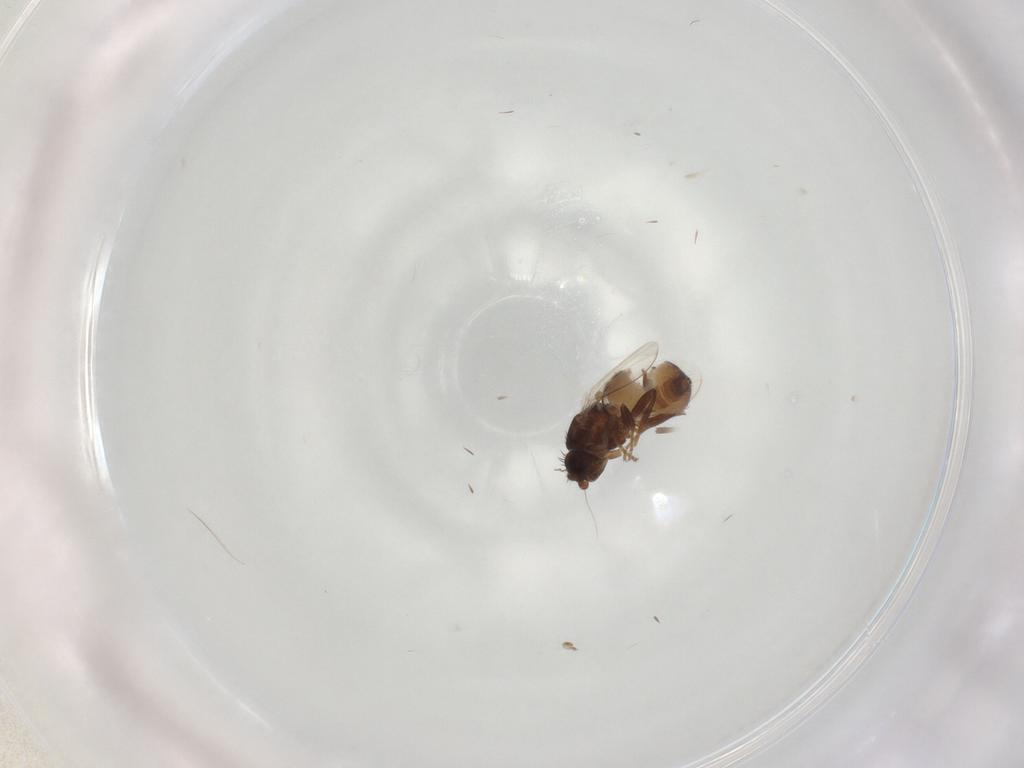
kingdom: Animalia
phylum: Arthropoda
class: Insecta
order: Diptera
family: Sphaeroceridae
